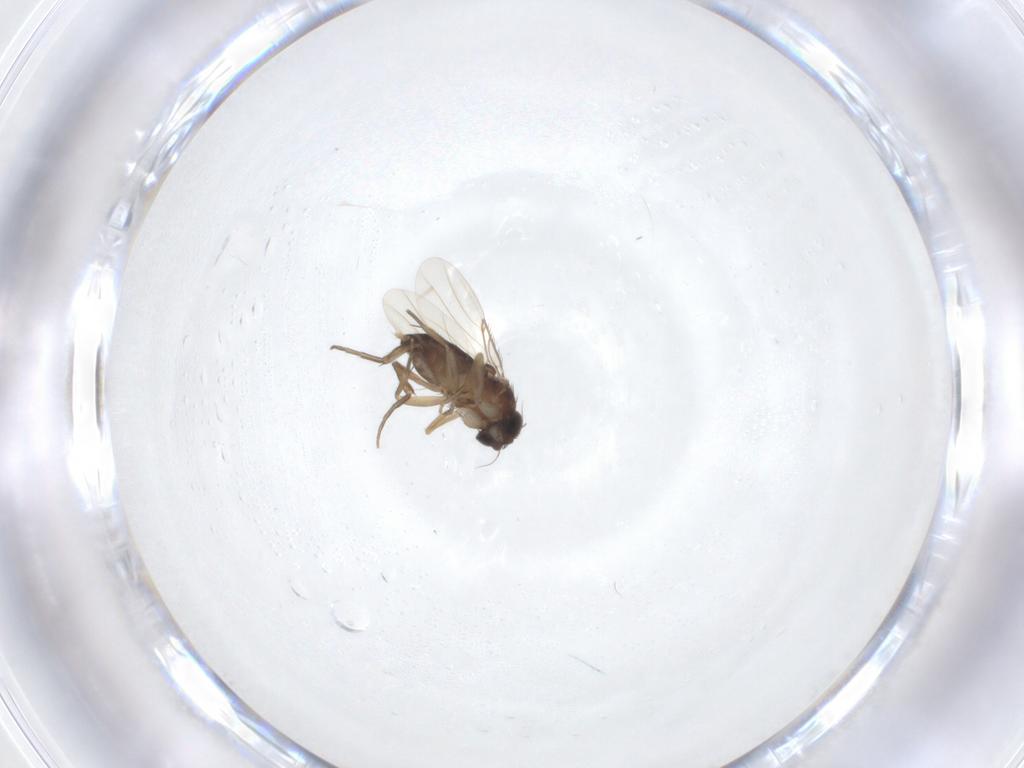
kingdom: Animalia
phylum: Arthropoda
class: Insecta
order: Diptera
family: Phoridae
